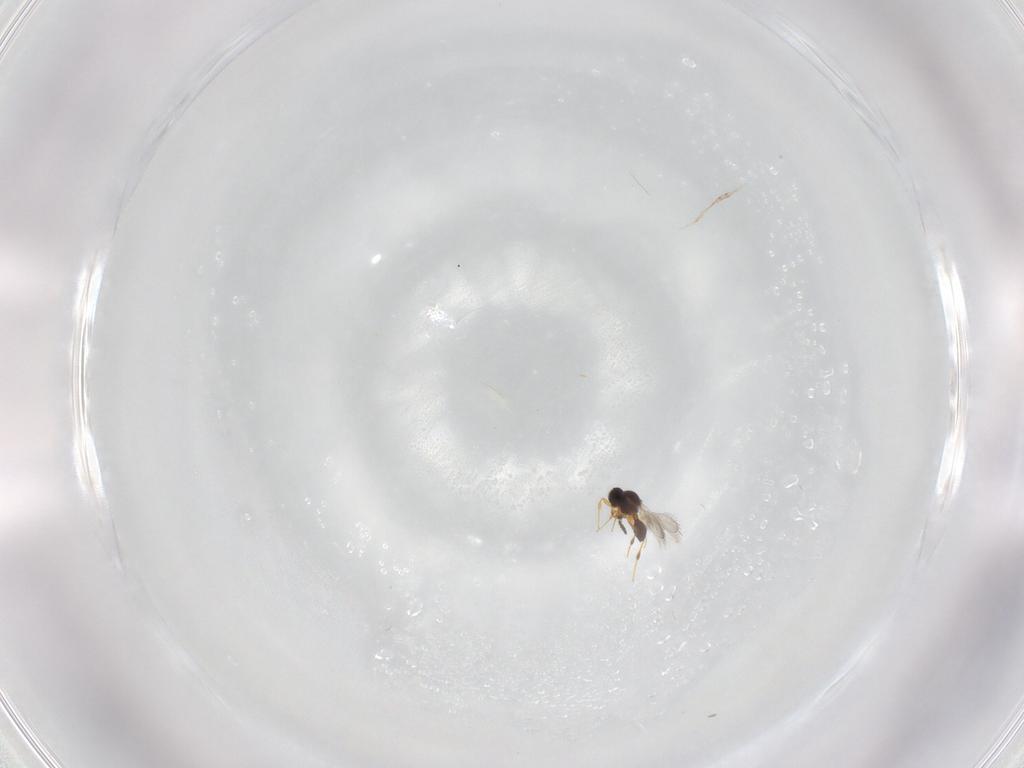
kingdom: Animalia
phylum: Arthropoda
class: Insecta
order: Hymenoptera
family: Platygastridae
